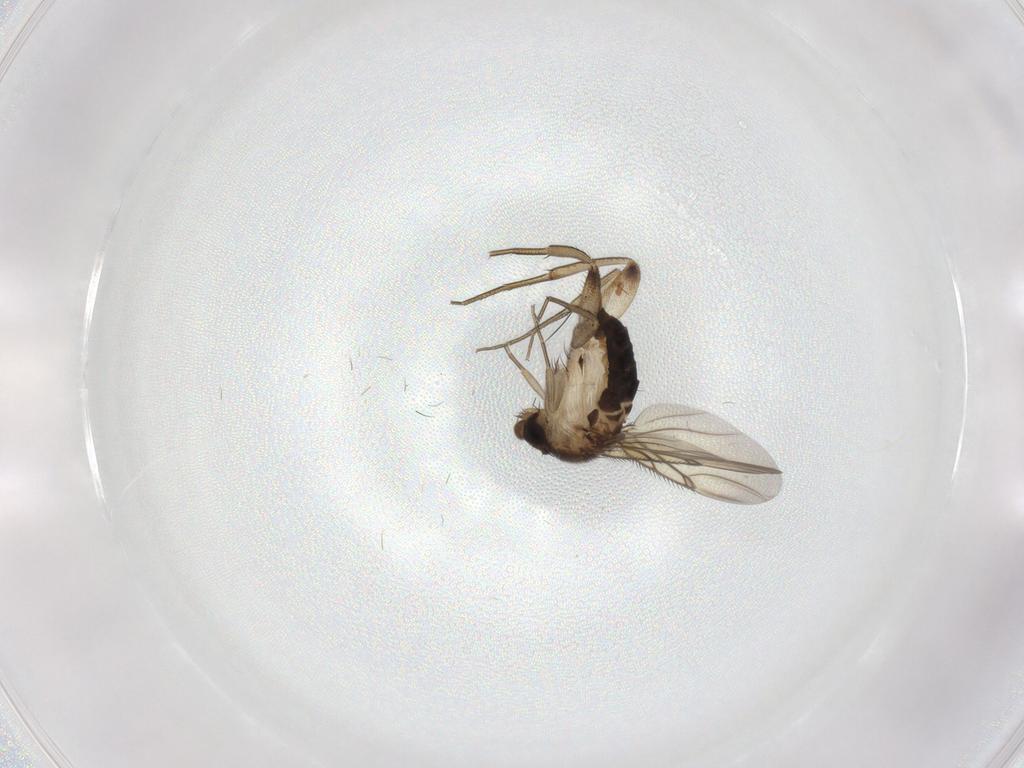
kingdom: Animalia
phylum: Arthropoda
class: Insecta
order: Diptera
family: Phoridae
